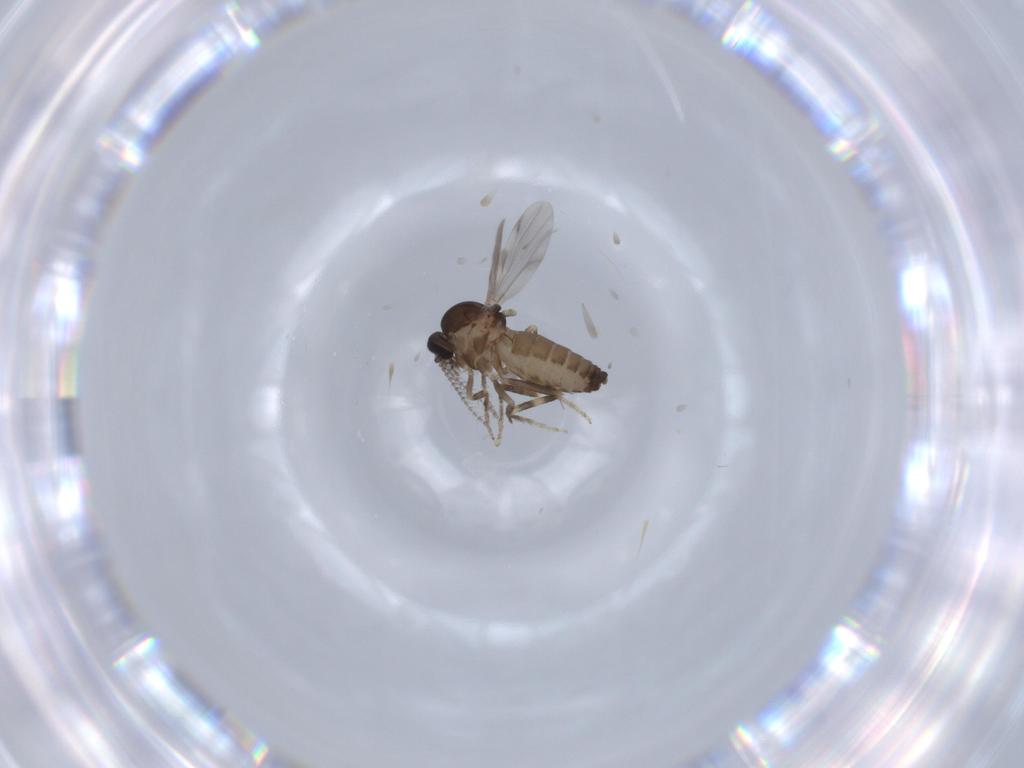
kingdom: Animalia
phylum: Arthropoda
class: Insecta
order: Diptera
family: Ceratopogonidae
